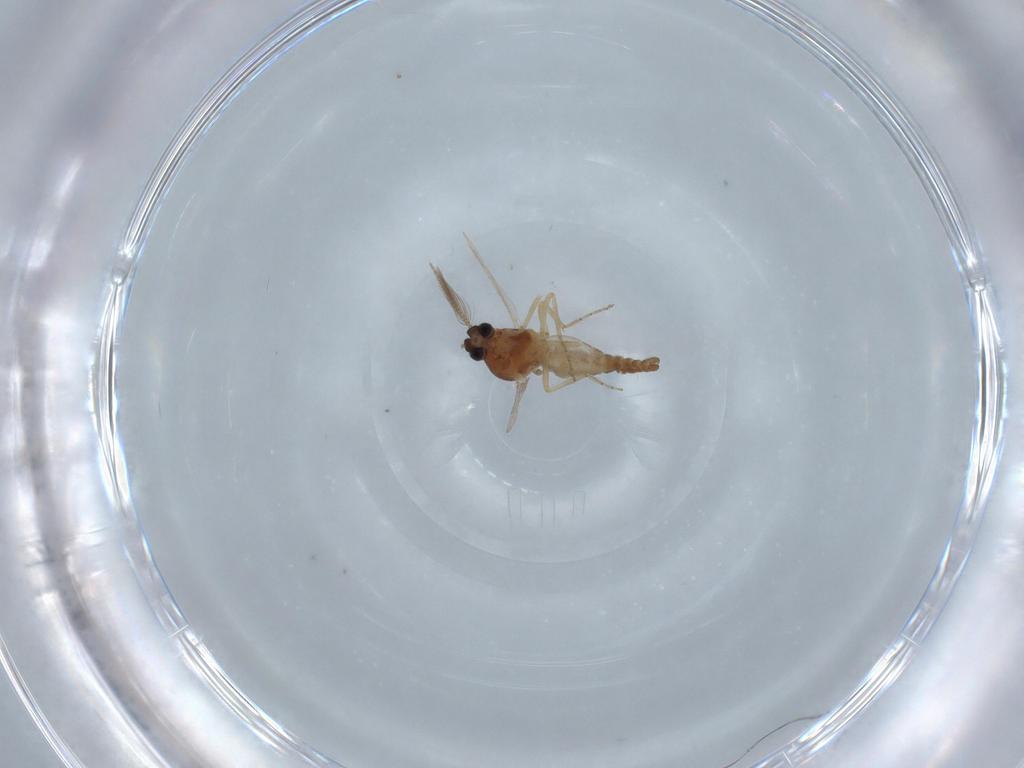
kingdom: Animalia
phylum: Arthropoda
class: Insecta
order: Diptera
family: Ceratopogonidae
